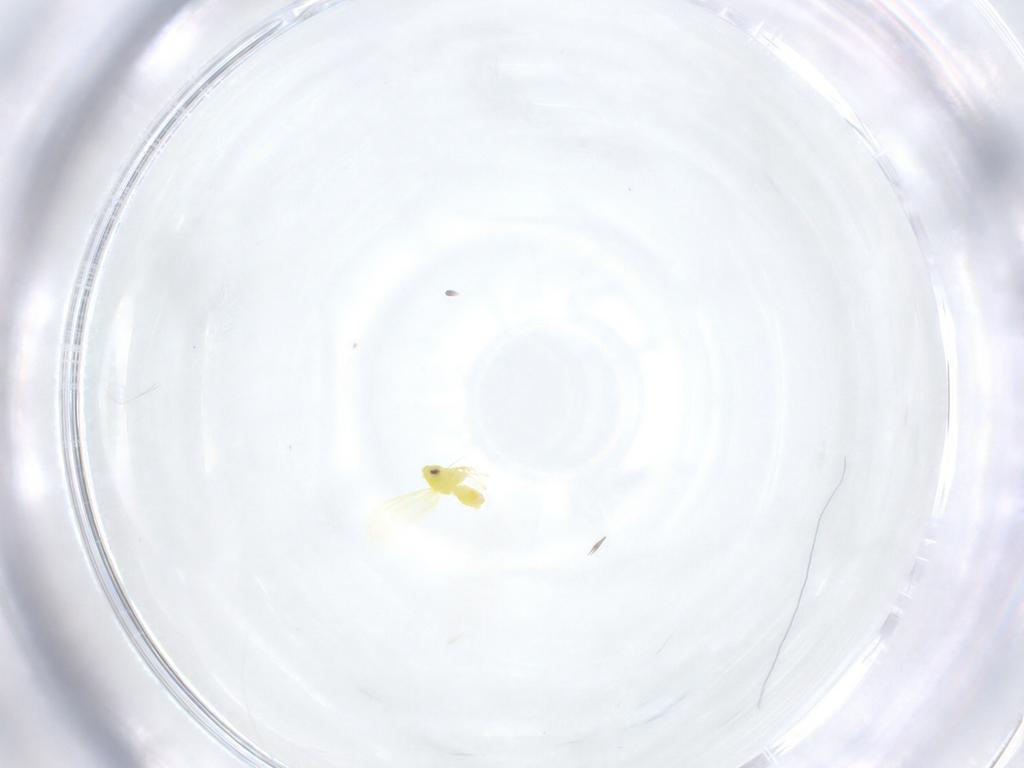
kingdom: Animalia
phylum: Arthropoda
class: Insecta
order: Hemiptera
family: Aleyrodidae
